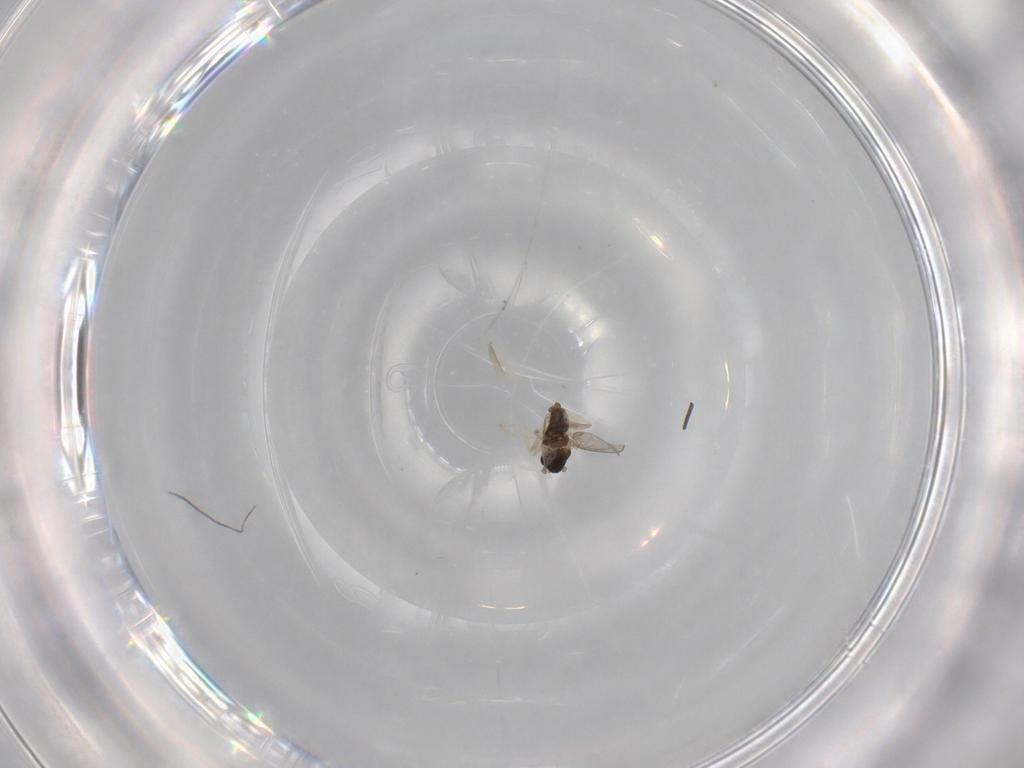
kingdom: Animalia
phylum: Arthropoda
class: Insecta
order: Diptera
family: Cecidomyiidae
